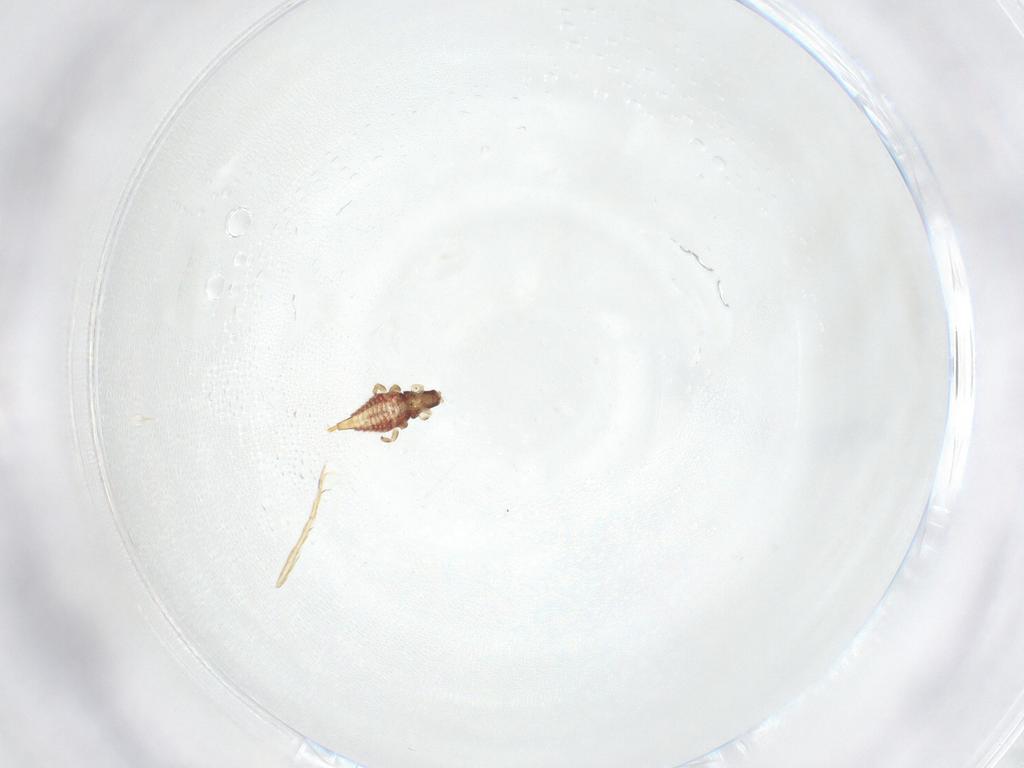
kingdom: Animalia
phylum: Arthropoda
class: Insecta
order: Thysanoptera
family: Phlaeothripidae
